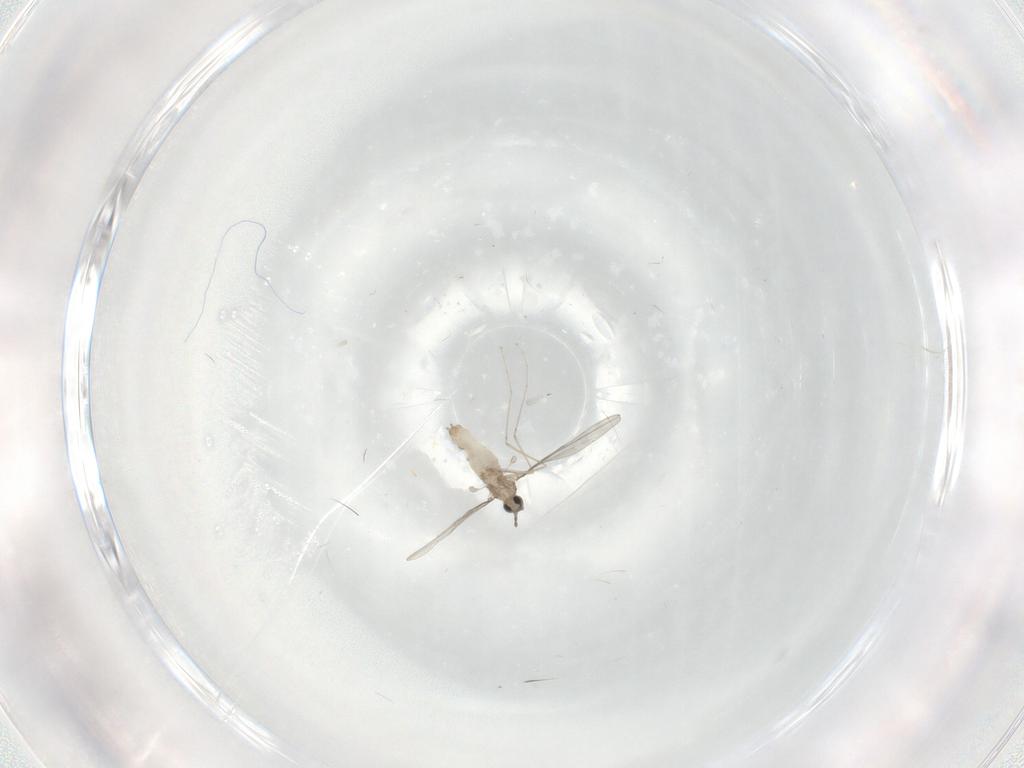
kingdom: Animalia
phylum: Arthropoda
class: Insecta
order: Diptera
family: Cecidomyiidae
